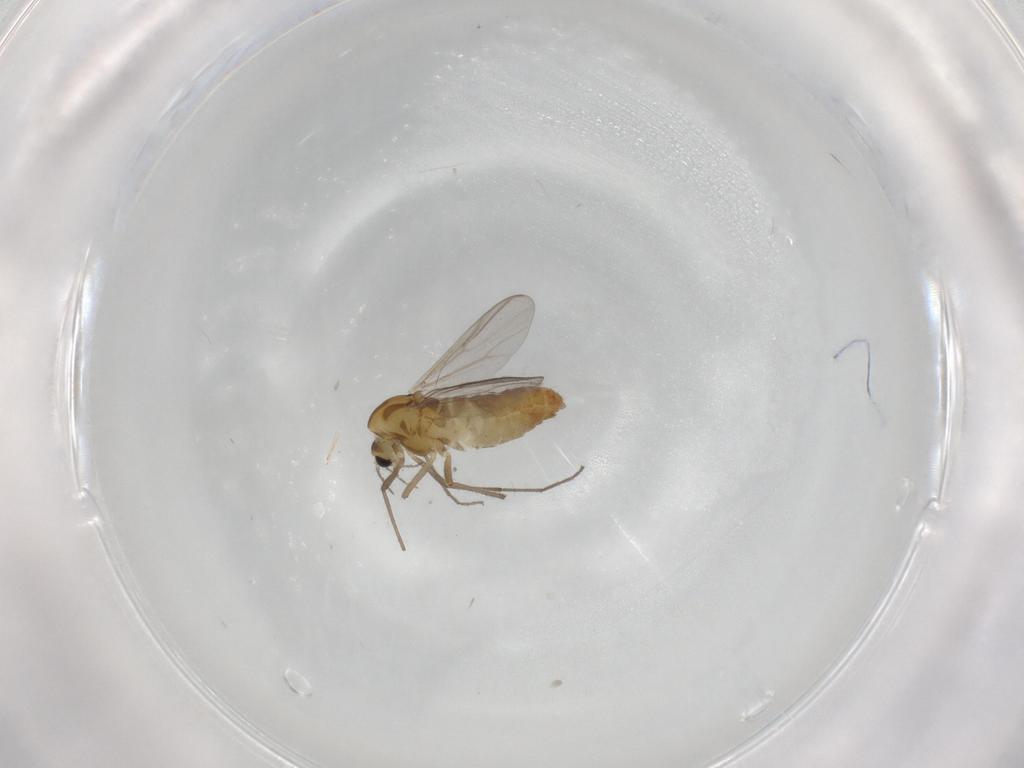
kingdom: Animalia
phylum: Arthropoda
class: Insecta
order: Diptera
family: Chironomidae
